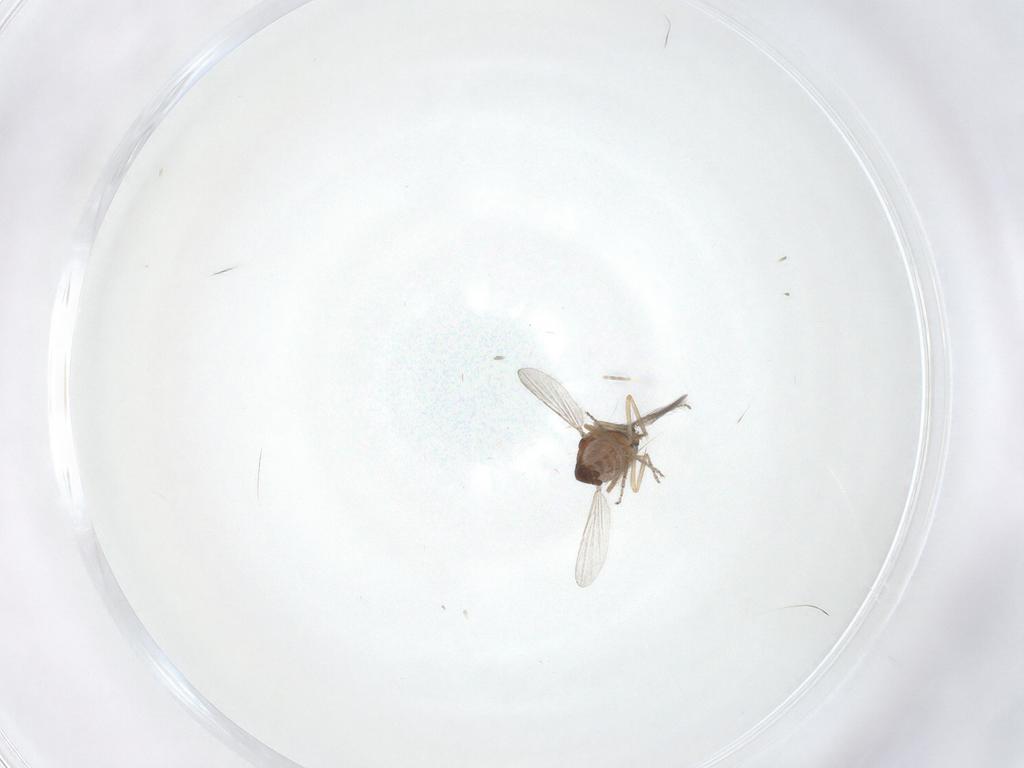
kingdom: Animalia
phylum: Arthropoda
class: Insecta
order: Diptera
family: Ceratopogonidae
